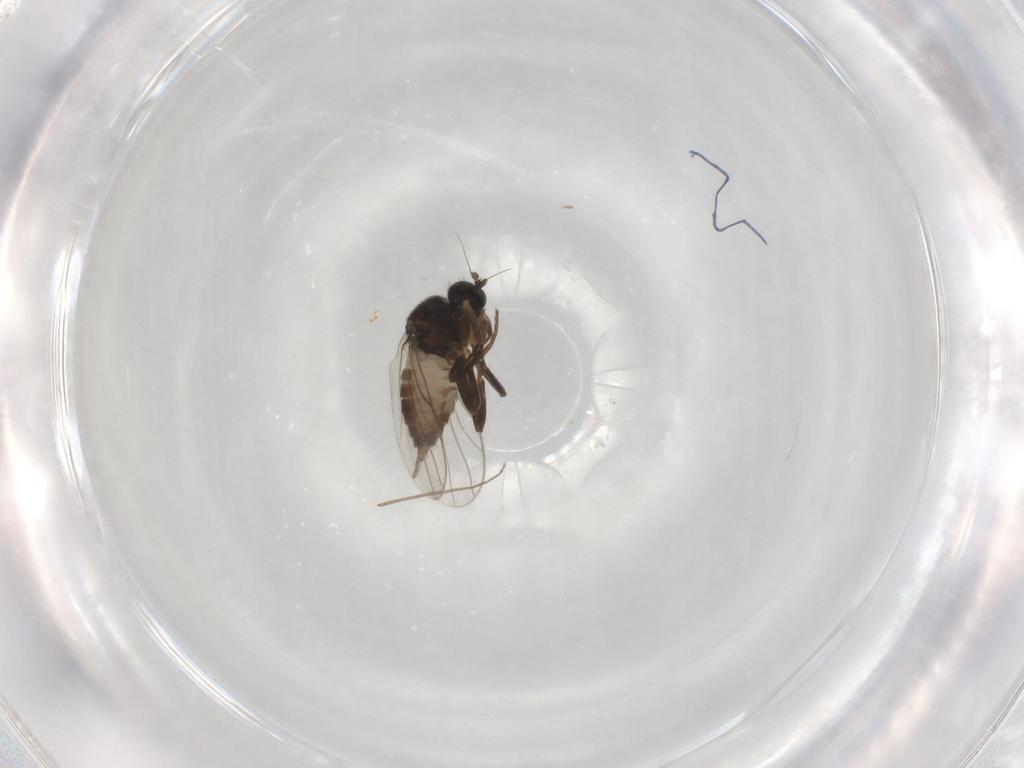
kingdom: Animalia
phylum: Arthropoda
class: Insecta
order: Diptera
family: Hybotidae
